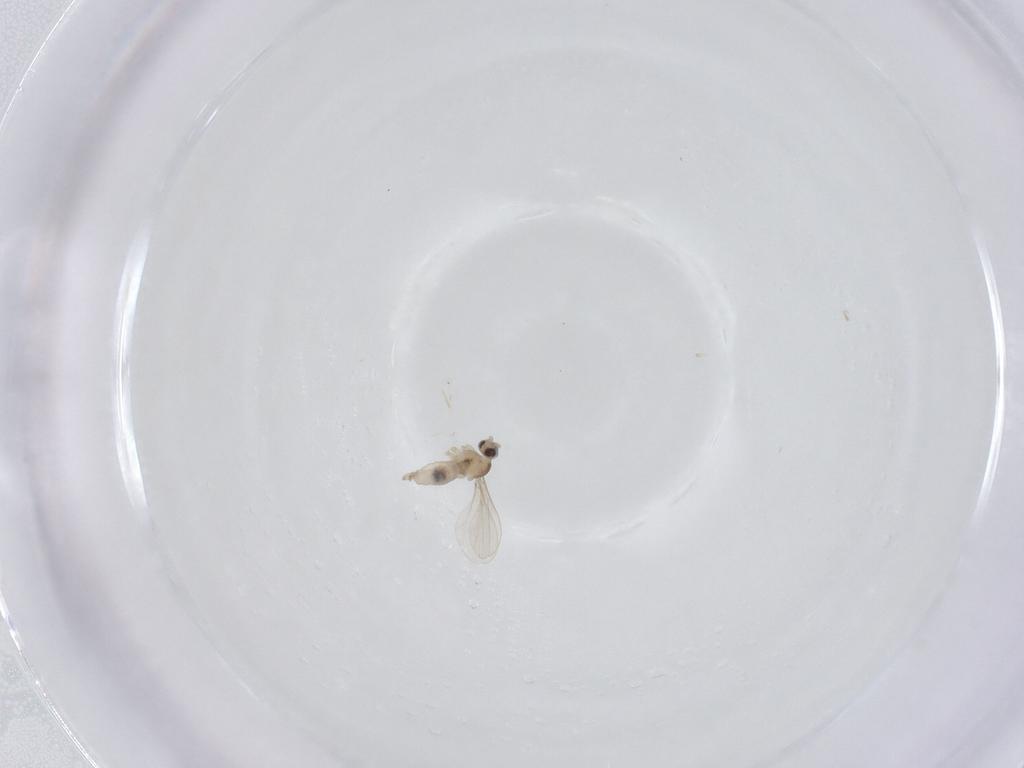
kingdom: Animalia
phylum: Arthropoda
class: Insecta
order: Diptera
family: Cecidomyiidae
